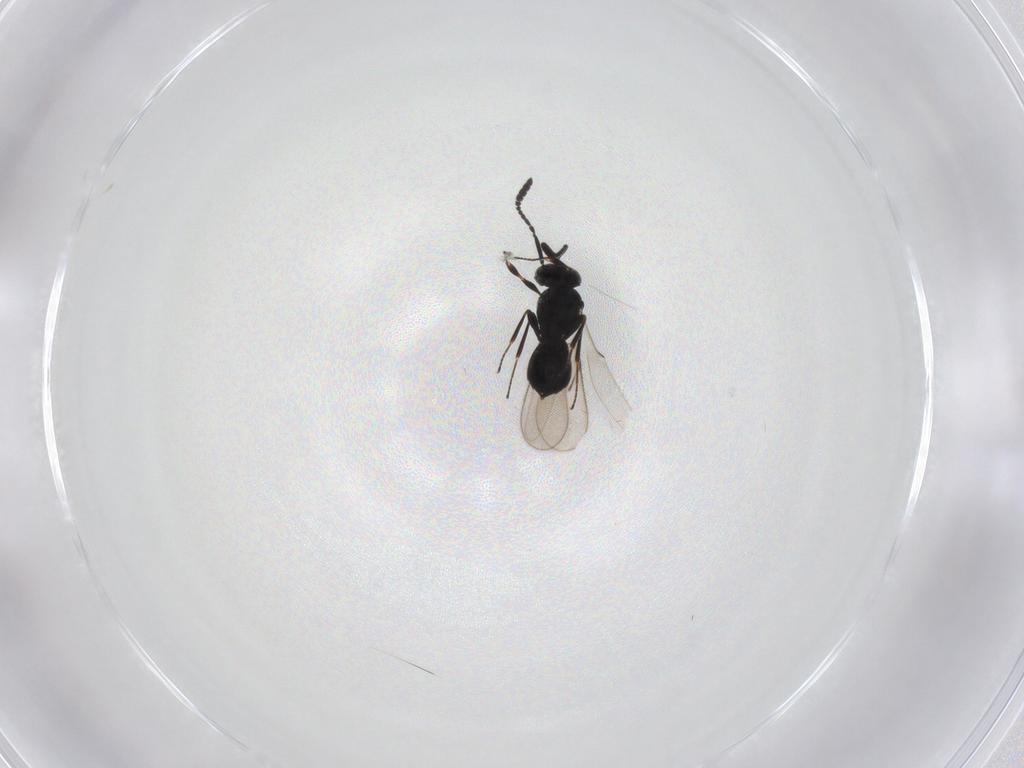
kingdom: Animalia
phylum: Arthropoda
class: Insecta
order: Hymenoptera
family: Scelionidae
